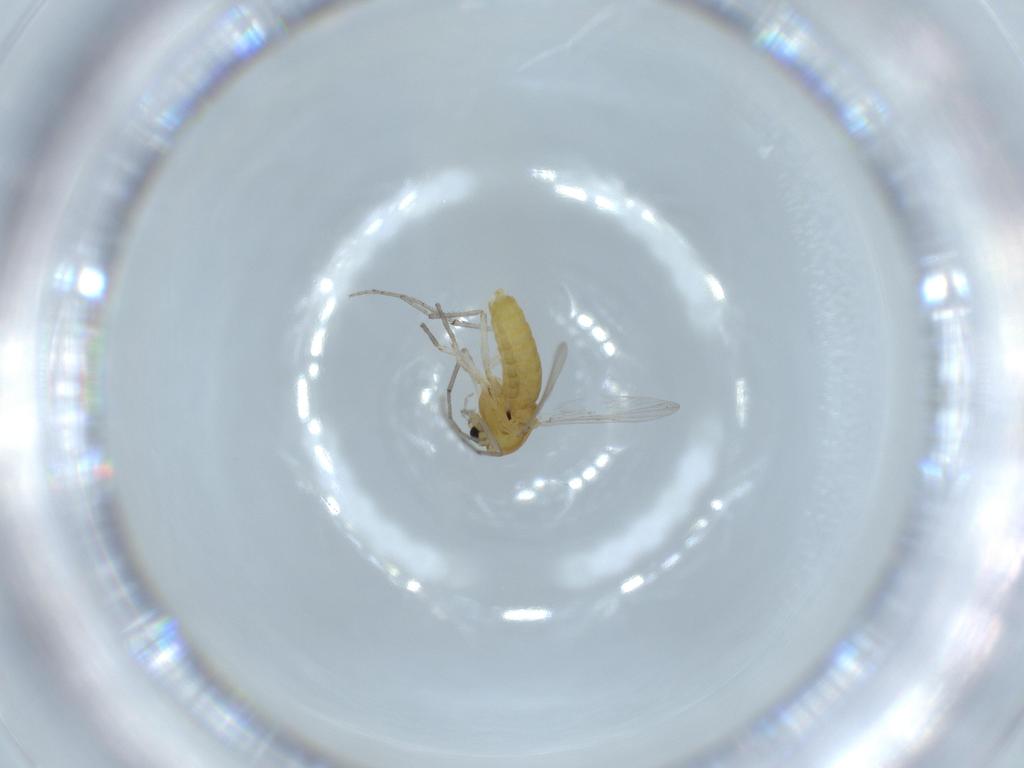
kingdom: Animalia
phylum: Arthropoda
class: Insecta
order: Diptera
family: Chironomidae
